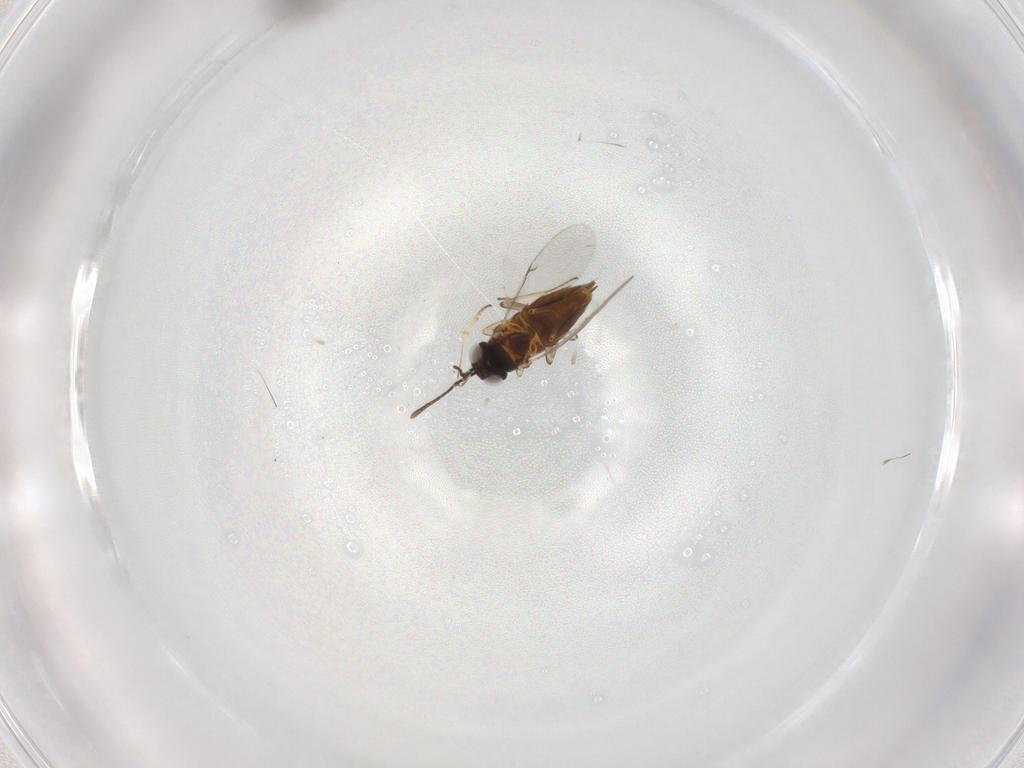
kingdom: Animalia
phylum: Arthropoda
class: Insecta
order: Hymenoptera
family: Mymaridae
